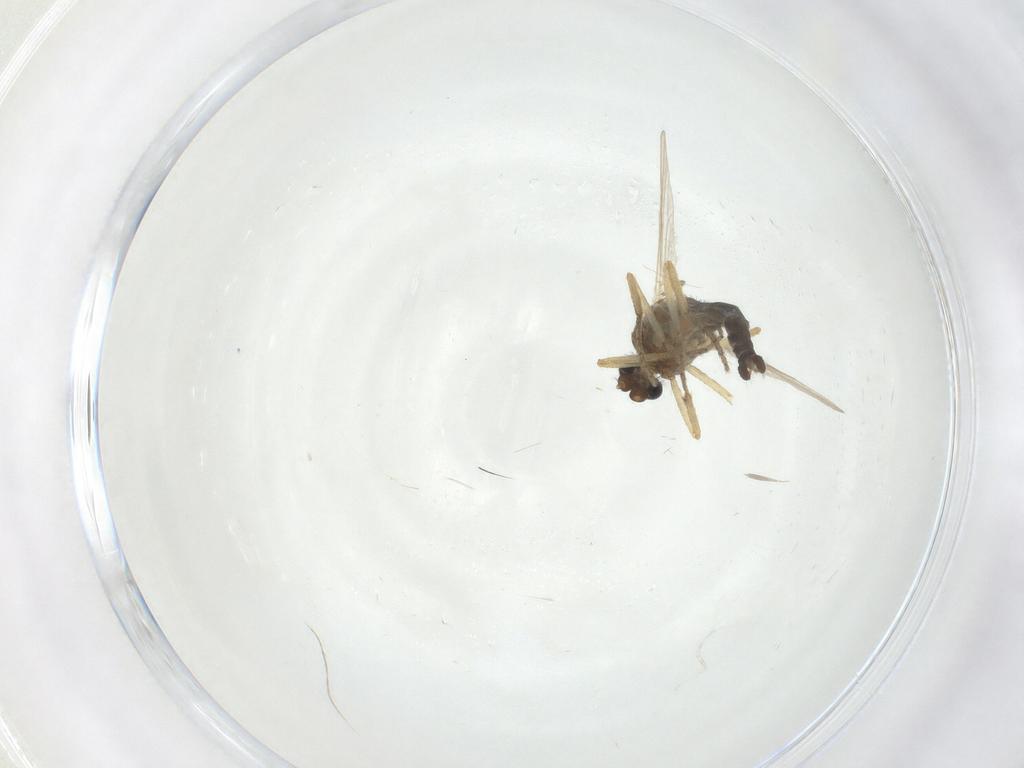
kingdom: Animalia
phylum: Arthropoda
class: Insecta
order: Diptera
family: Ceratopogonidae
